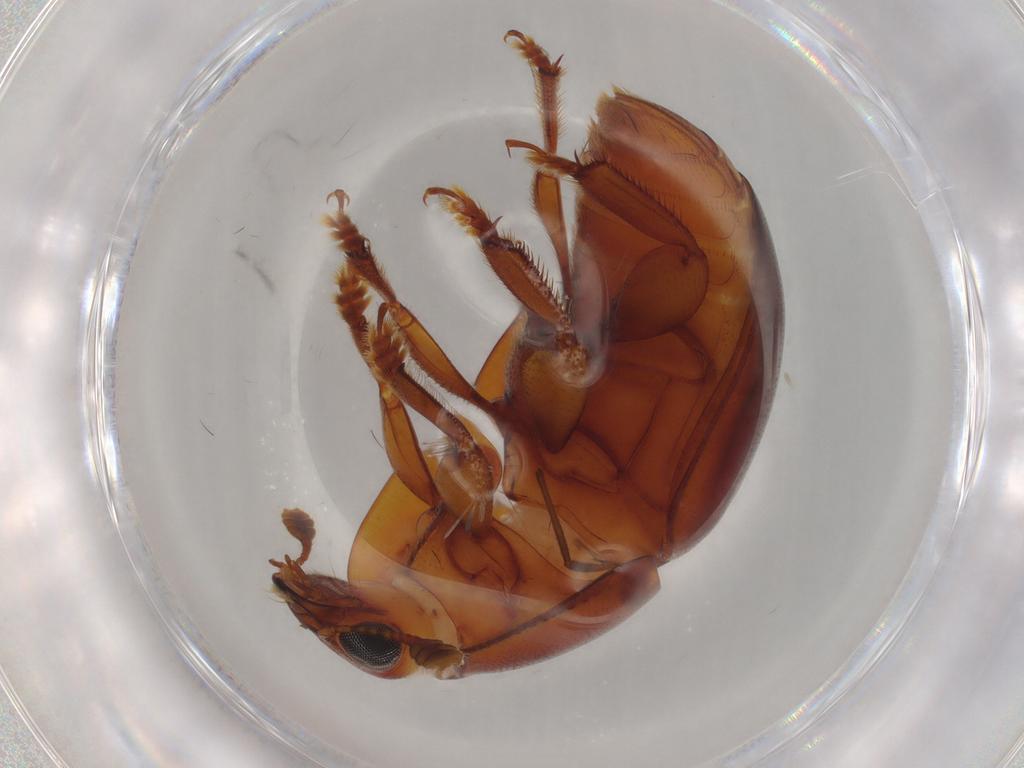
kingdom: Animalia
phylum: Arthropoda
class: Insecta
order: Coleoptera
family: Nitidulidae
